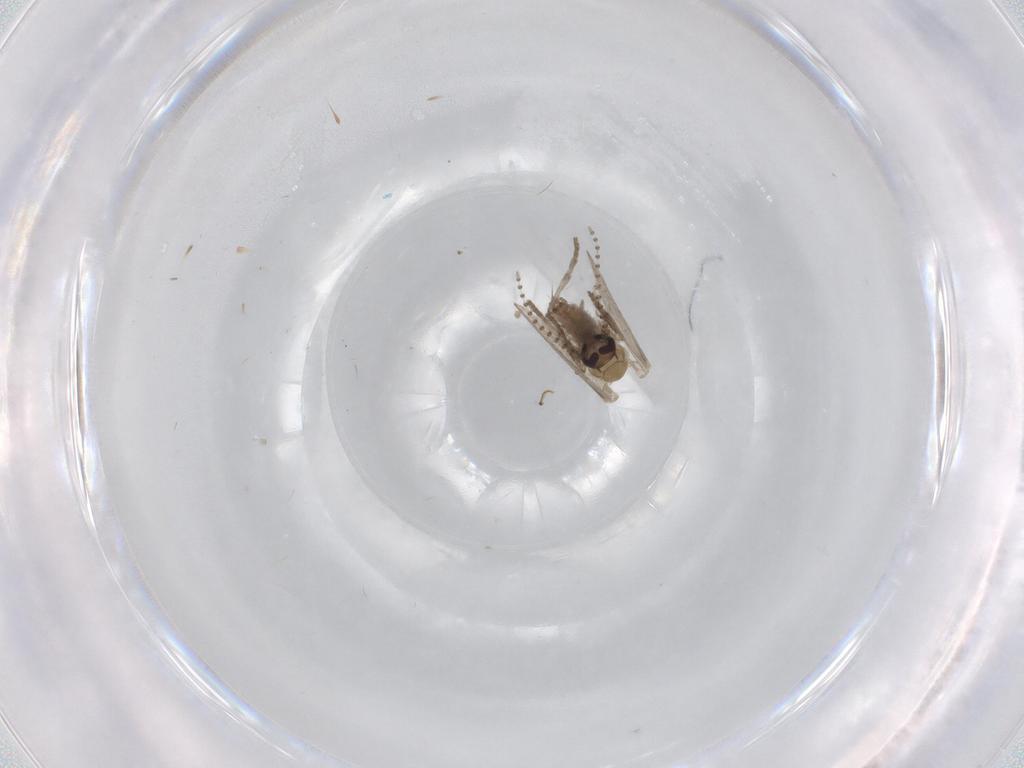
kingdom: Animalia
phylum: Arthropoda
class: Insecta
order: Diptera
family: Psychodidae
